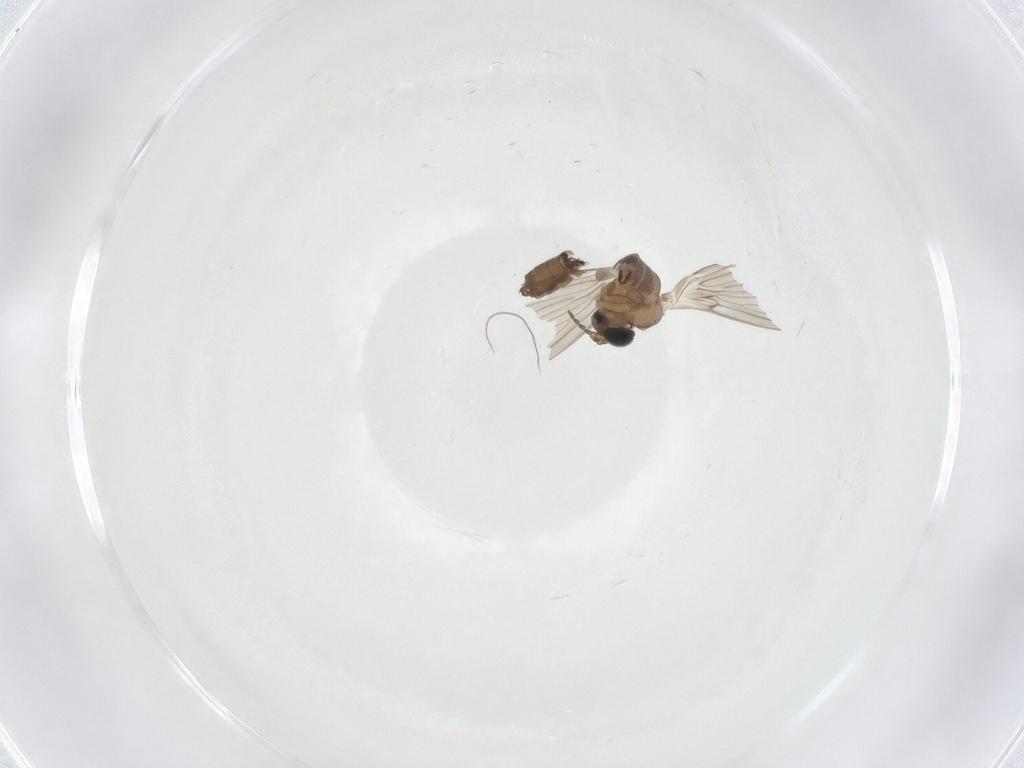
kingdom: Animalia
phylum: Arthropoda
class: Insecta
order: Diptera
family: Psychodidae
